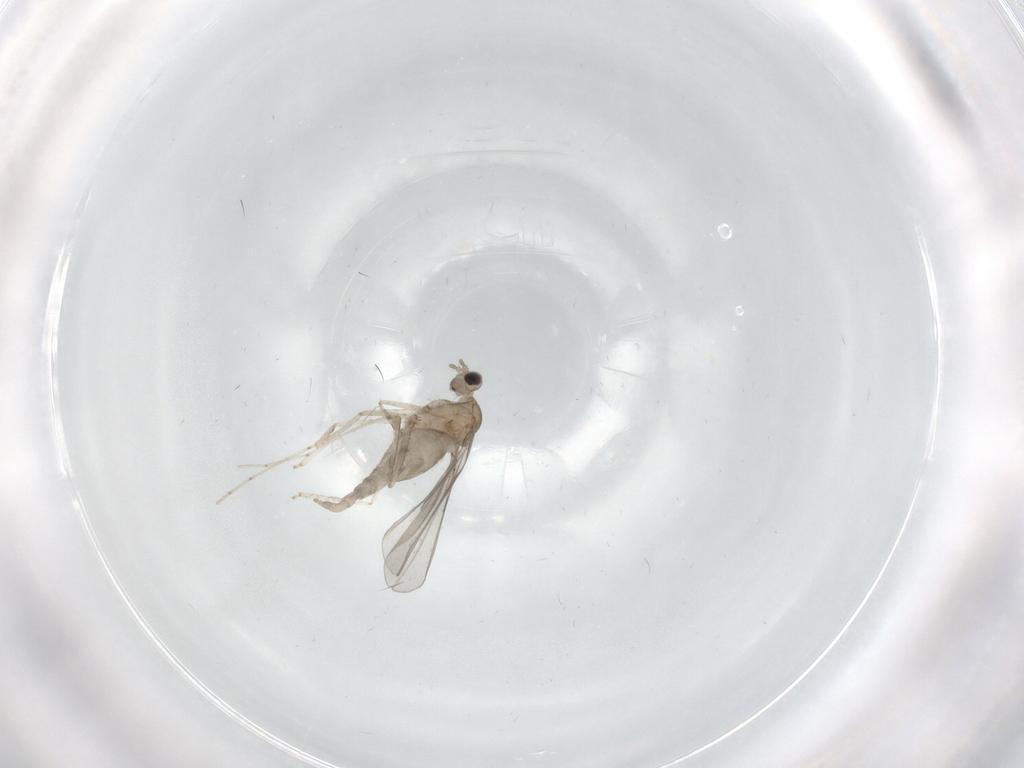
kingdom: Animalia
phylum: Arthropoda
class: Insecta
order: Diptera
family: Cecidomyiidae
